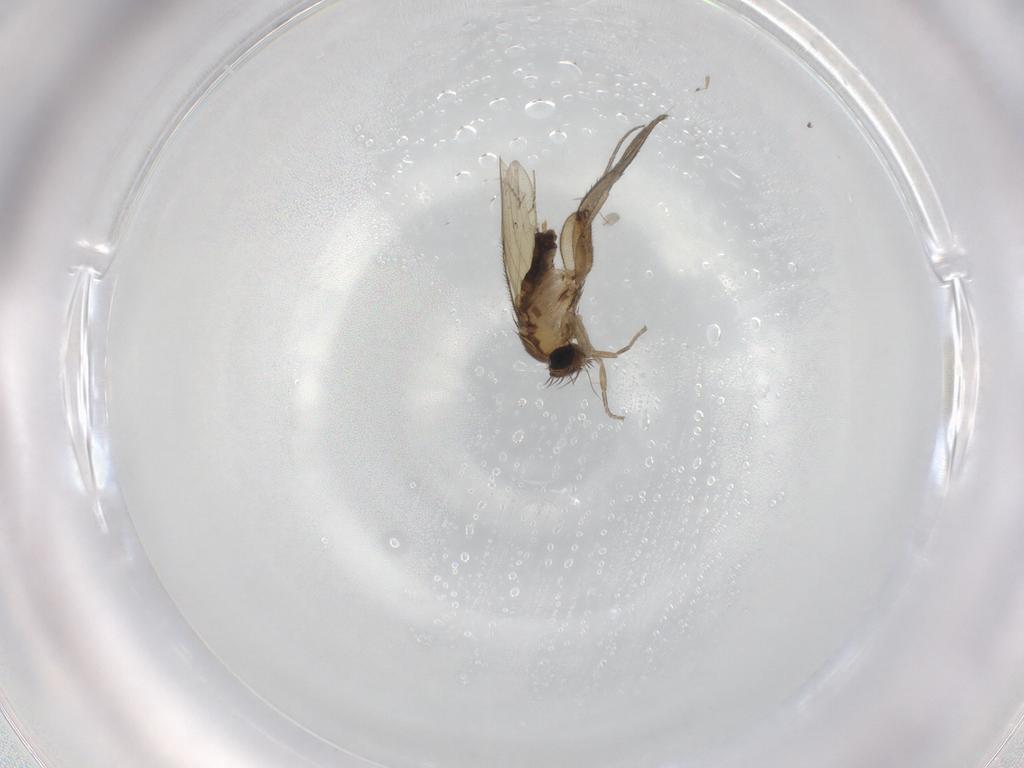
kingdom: Animalia
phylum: Arthropoda
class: Insecta
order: Diptera
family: Phoridae
